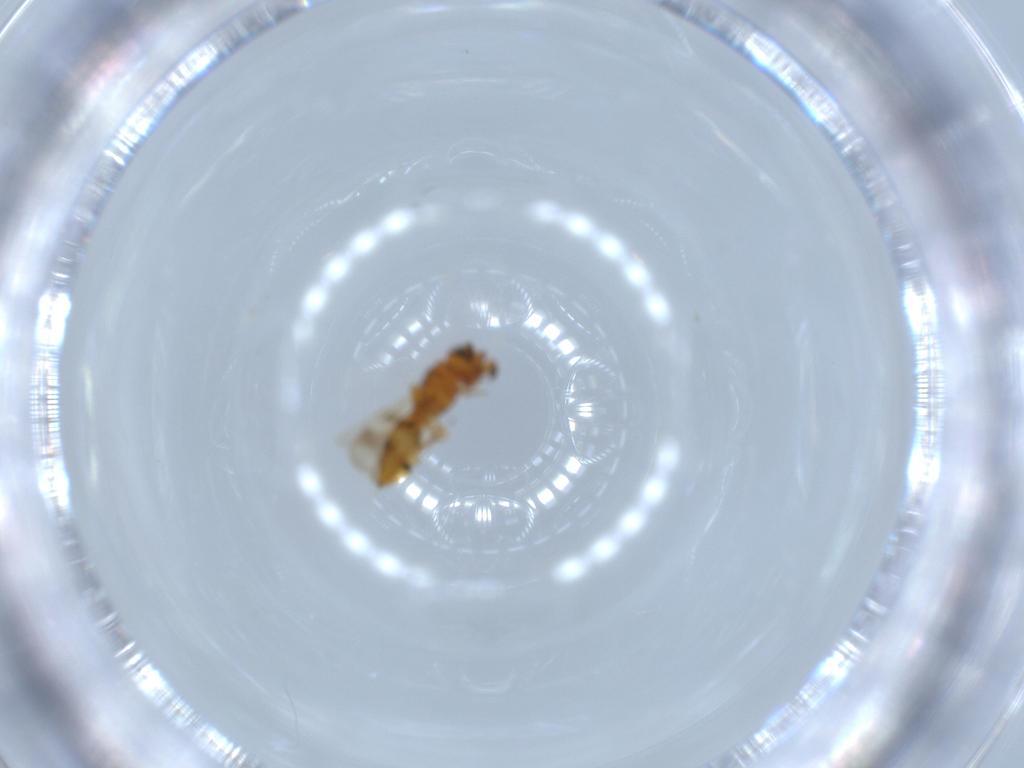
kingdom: Animalia
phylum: Arthropoda
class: Insecta
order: Hymenoptera
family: Scelionidae
